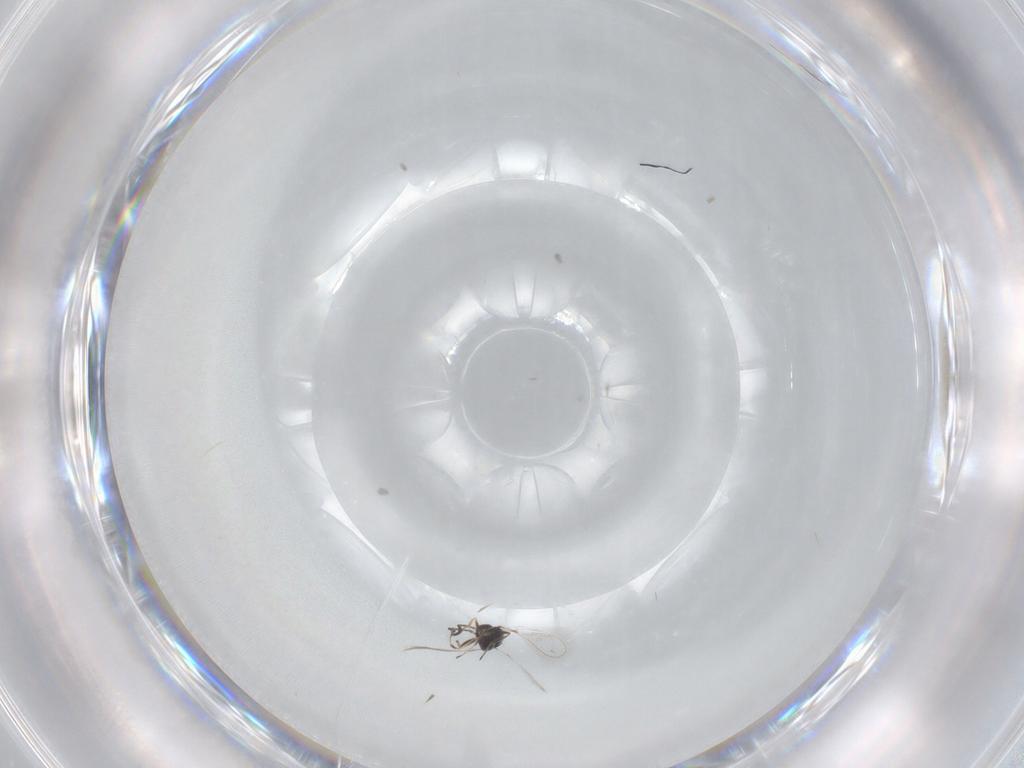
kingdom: Animalia
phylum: Arthropoda
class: Insecta
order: Hymenoptera
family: Mymaridae
